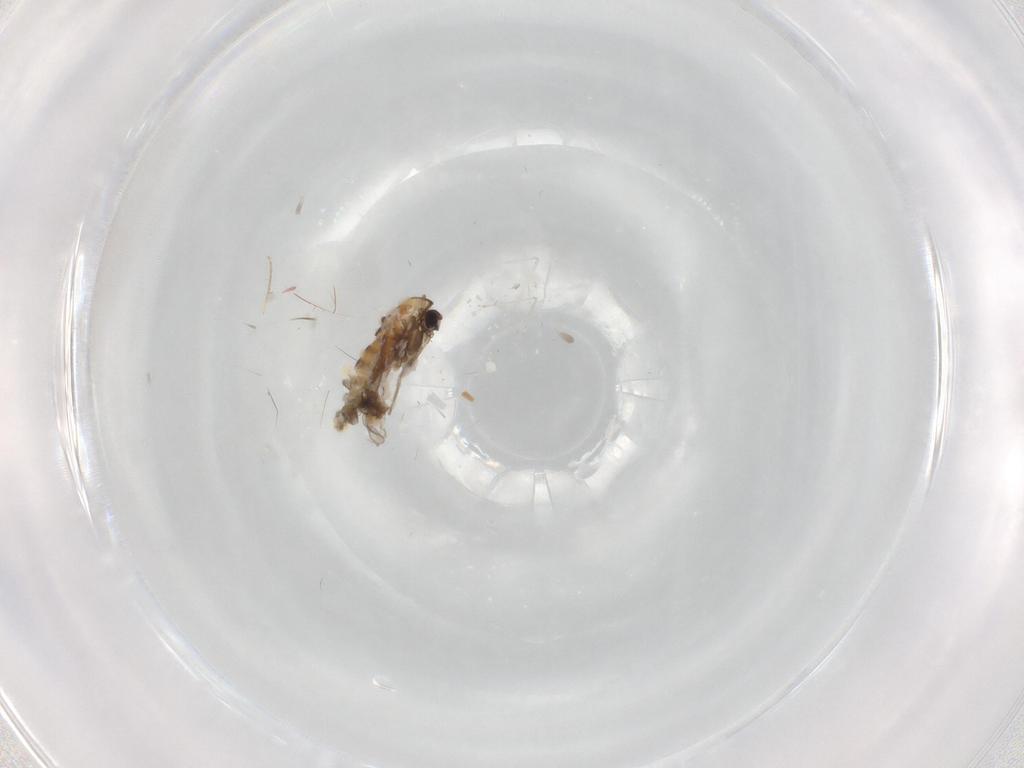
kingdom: Animalia
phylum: Arthropoda
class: Insecta
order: Diptera
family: Chironomidae
